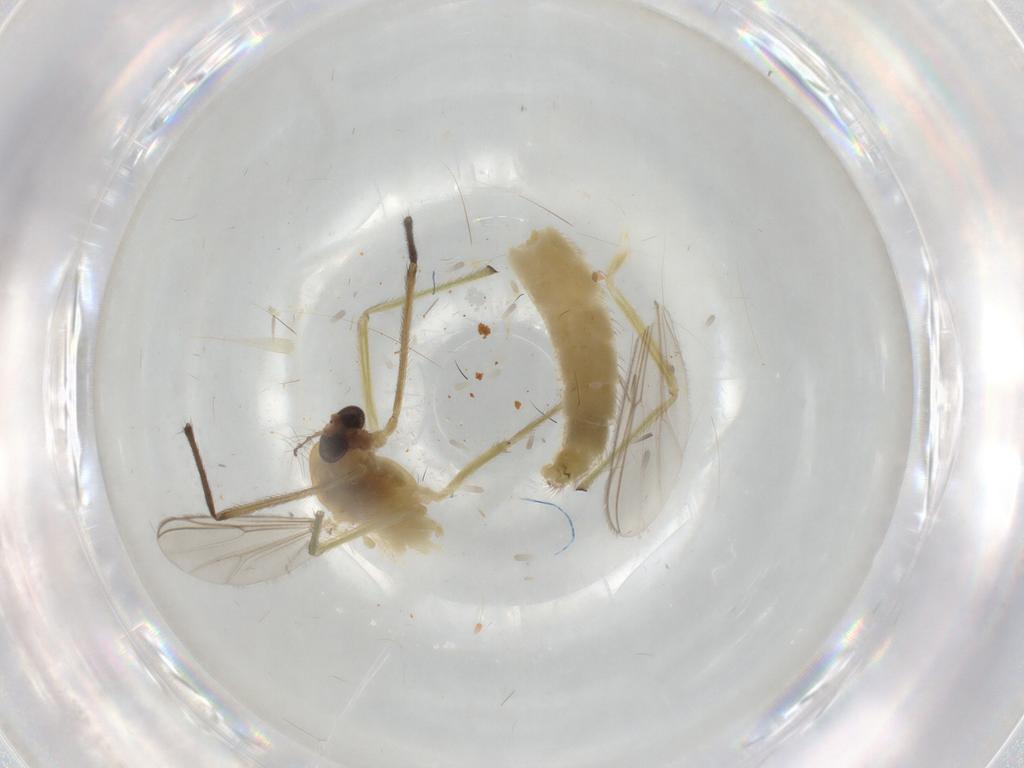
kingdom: Animalia
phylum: Arthropoda
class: Insecta
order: Diptera
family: Chironomidae
